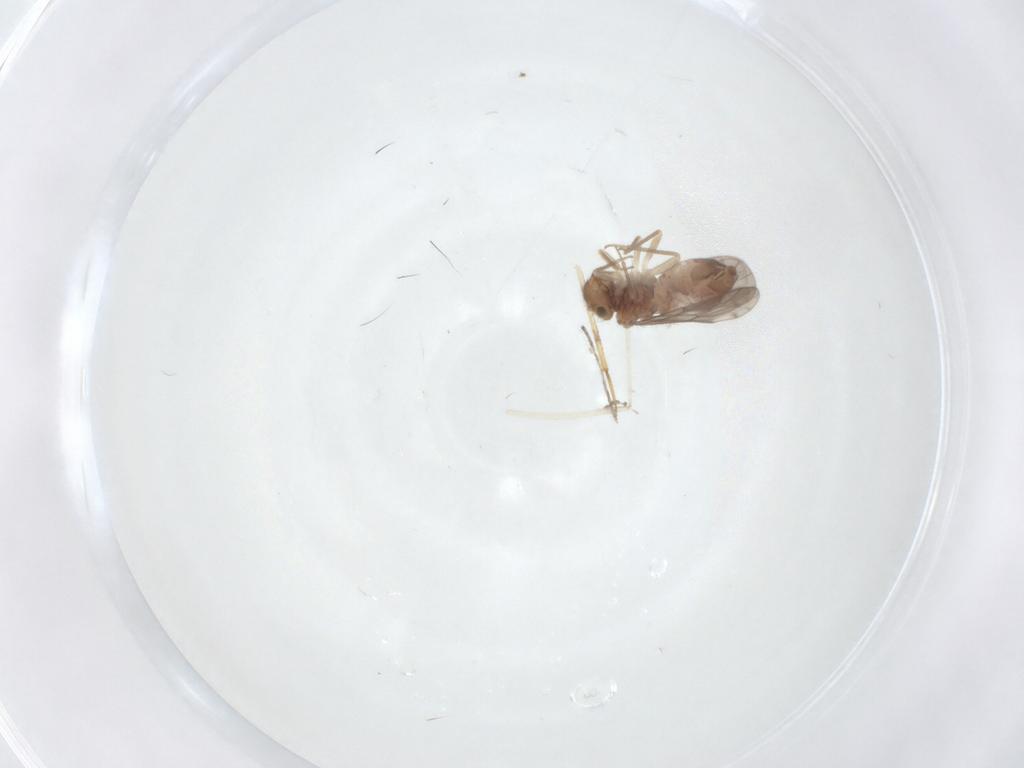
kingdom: Animalia
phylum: Arthropoda
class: Insecta
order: Psocodea
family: Ectopsocidae
